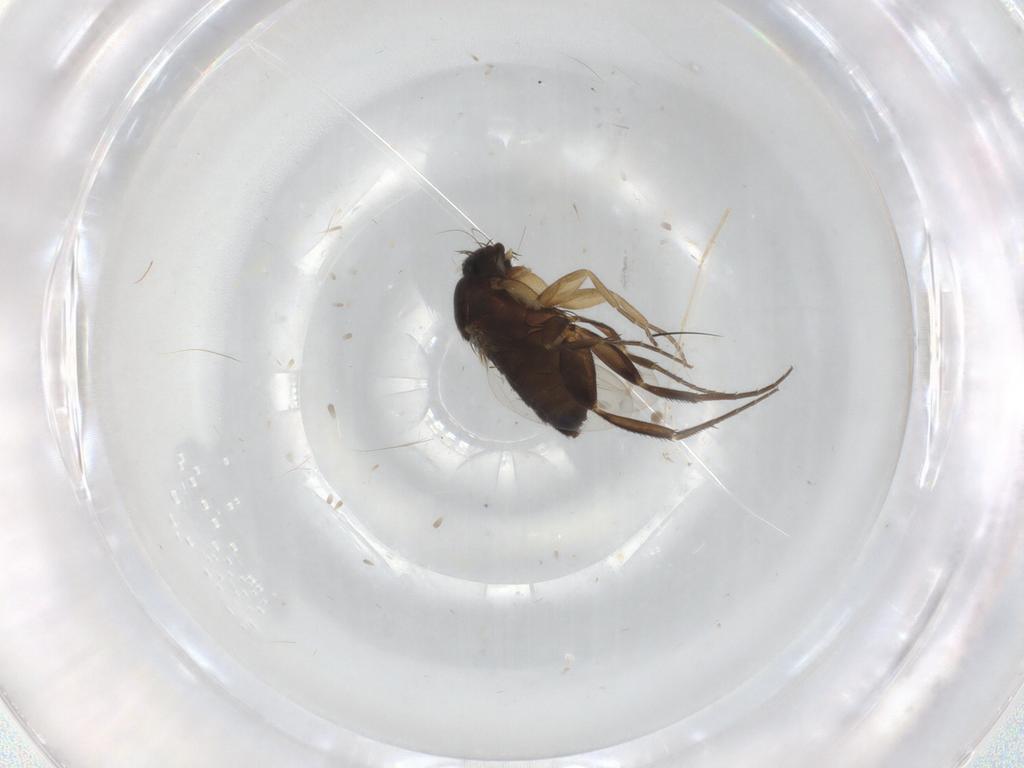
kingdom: Animalia
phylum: Arthropoda
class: Insecta
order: Diptera
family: Phoridae
